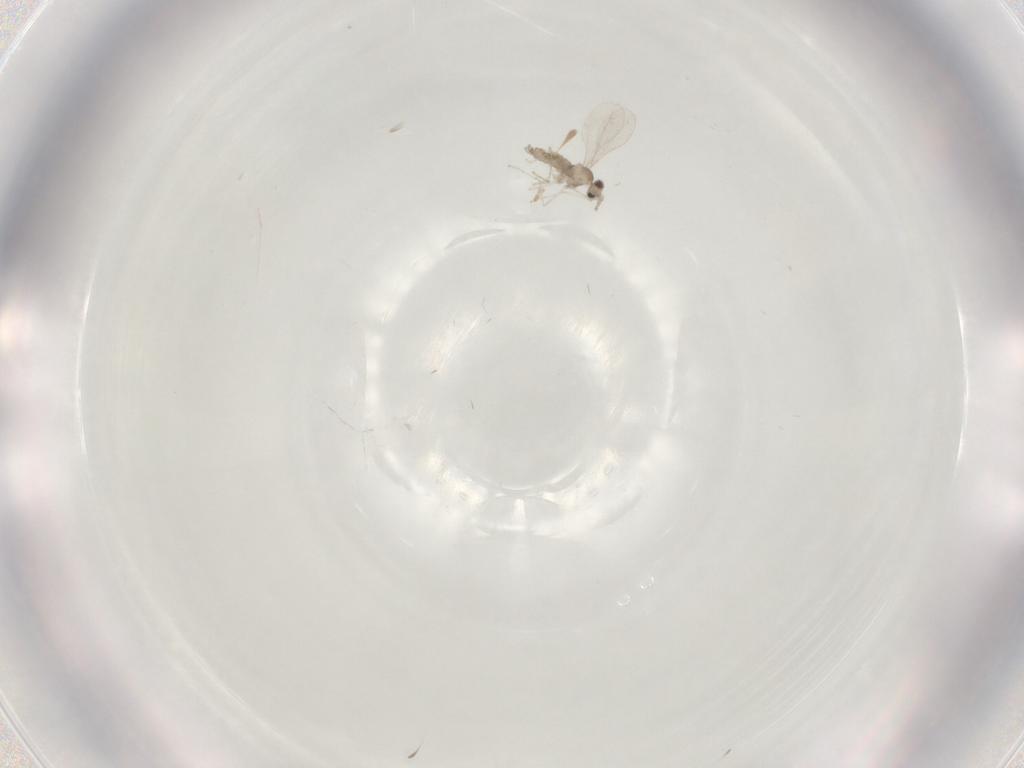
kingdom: Animalia
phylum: Arthropoda
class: Insecta
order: Diptera
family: Cecidomyiidae
